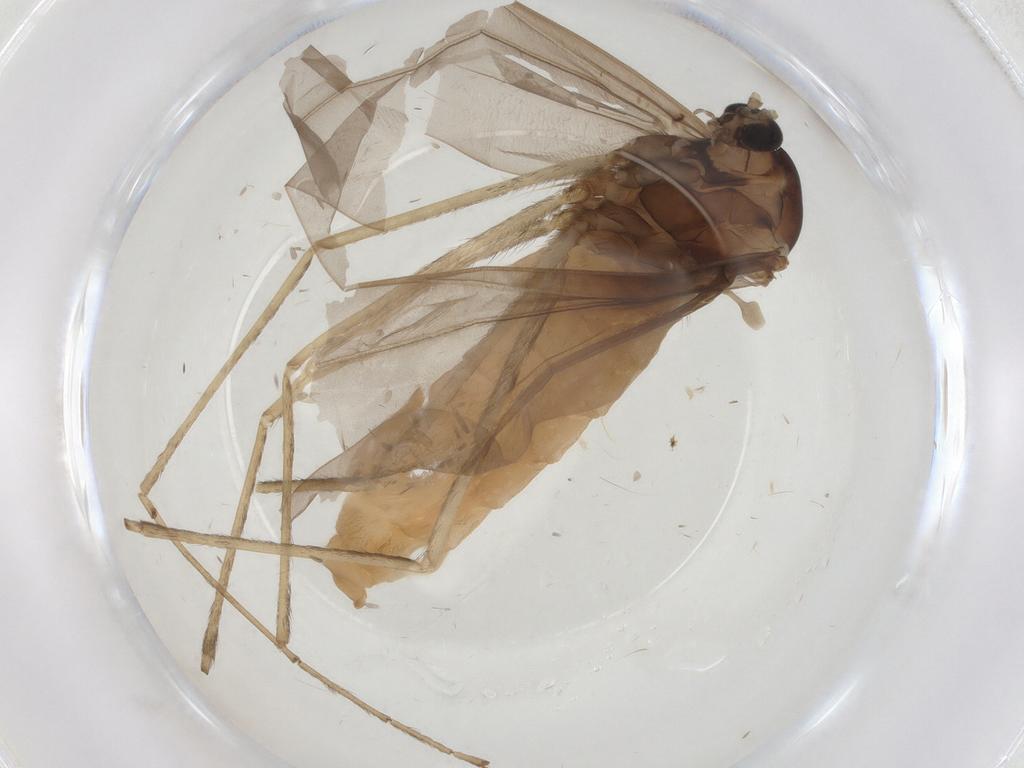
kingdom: Animalia
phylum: Arthropoda
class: Insecta
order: Diptera
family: Cecidomyiidae
